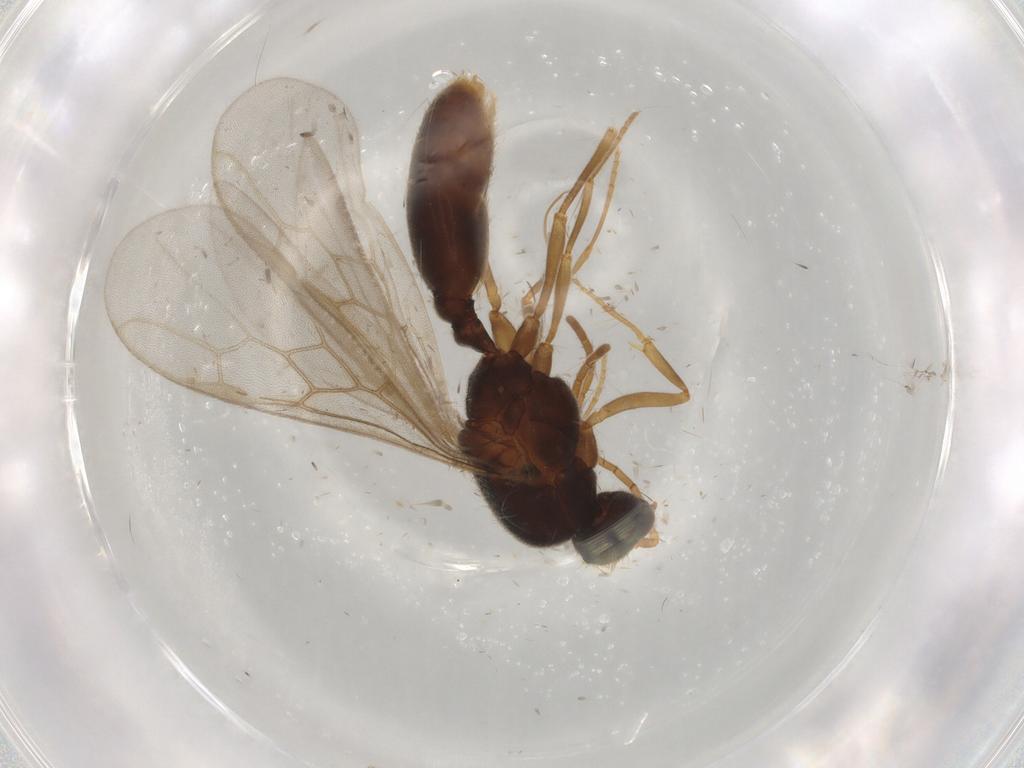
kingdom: Animalia
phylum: Arthropoda
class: Insecta
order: Hymenoptera
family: Formicidae
